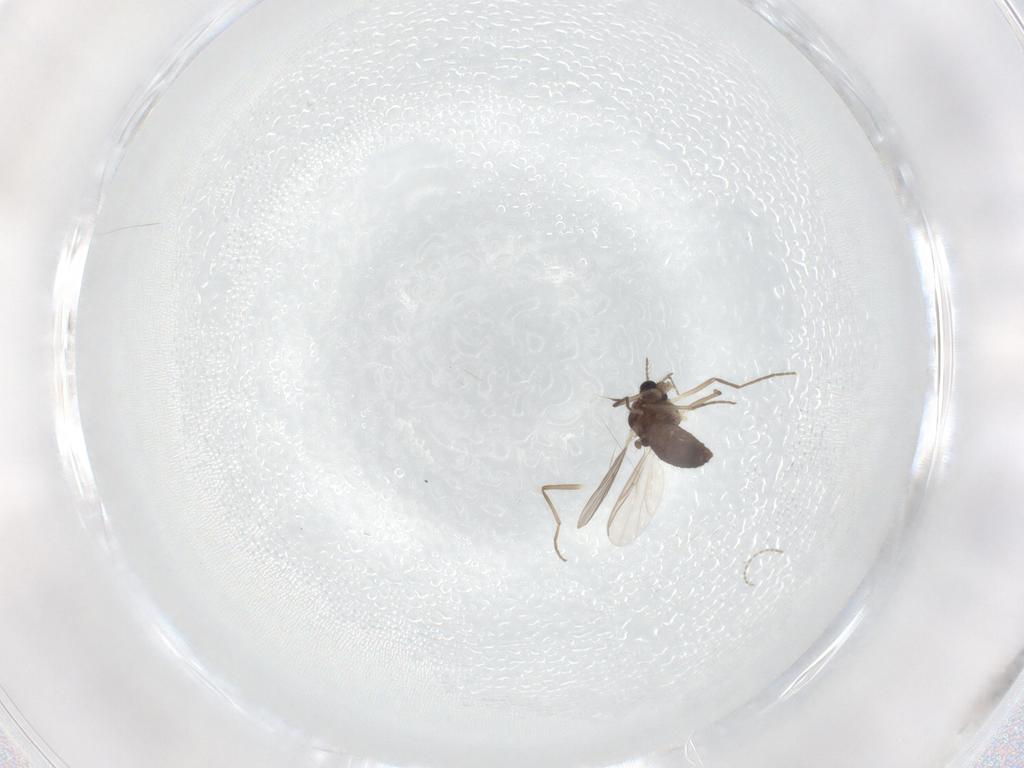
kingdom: Animalia
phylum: Arthropoda
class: Insecta
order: Diptera
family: Chironomidae
